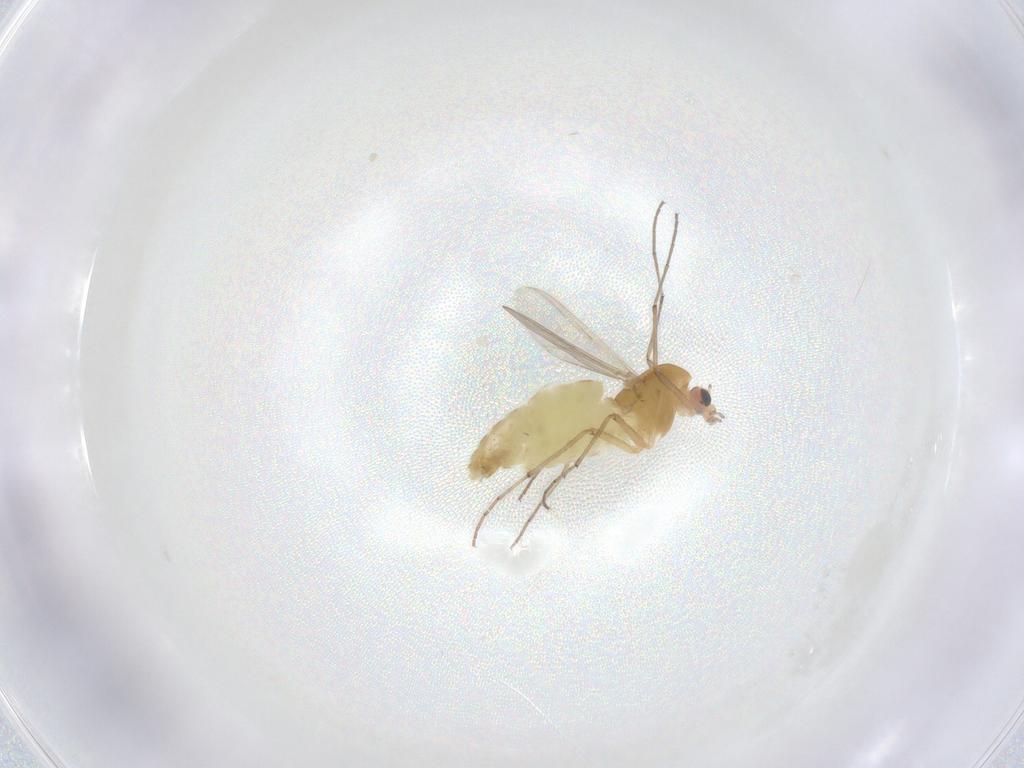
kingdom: Animalia
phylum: Arthropoda
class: Insecta
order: Diptera
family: Chironomidae
